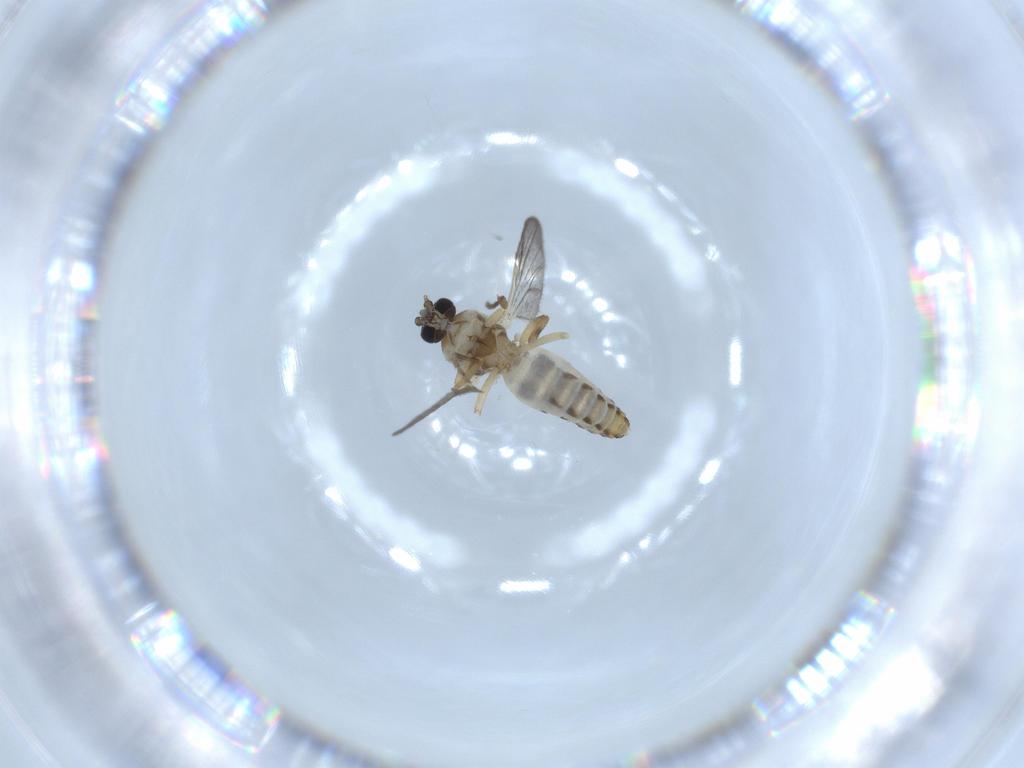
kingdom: Animalia
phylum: Arthropoda
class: Insecta
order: Diptera
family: Ceratopogonidae
